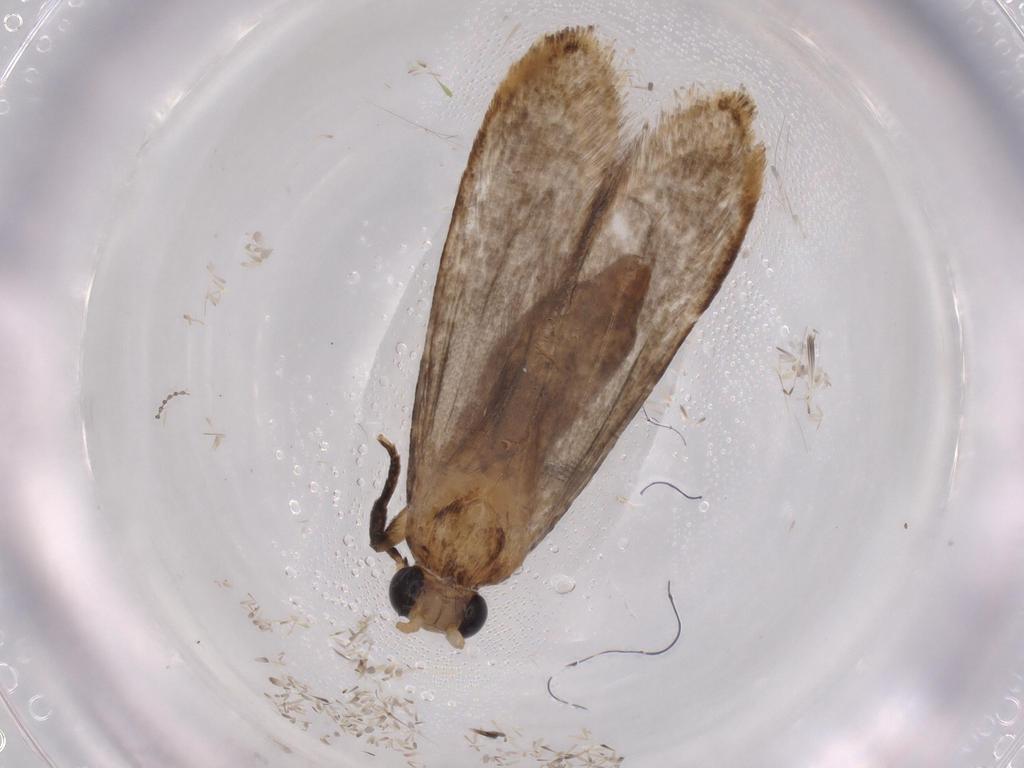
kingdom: Animalia
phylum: Arthropoda
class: Insecta
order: Lepidoptera
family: Tineidae
